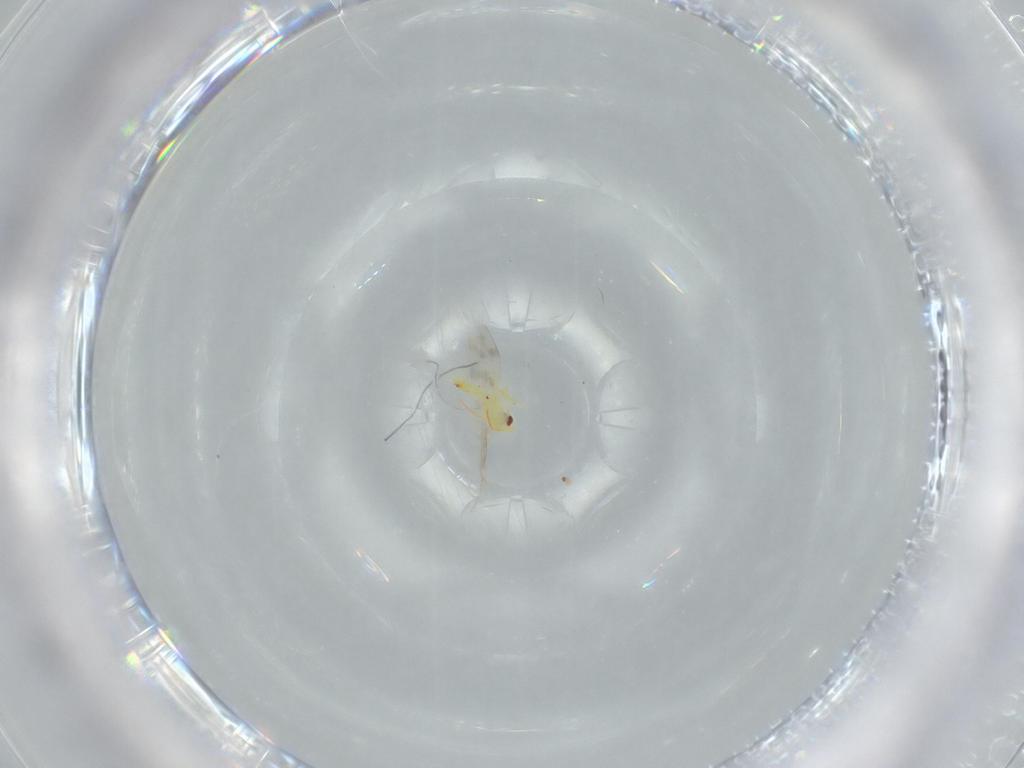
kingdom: Animalia
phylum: Arthropoda
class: Insecta
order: Hemiptera
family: Aleyrodidae
